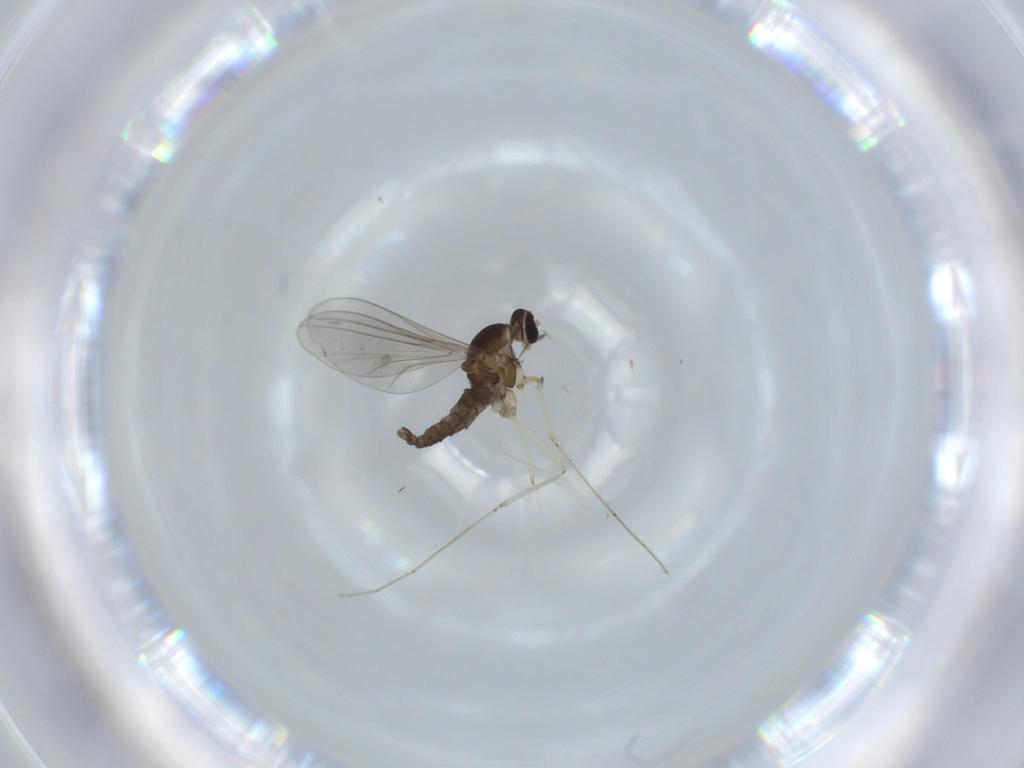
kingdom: Animalia
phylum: Arthropoda
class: Insecta
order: Diptera
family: Cecidomyiidae
